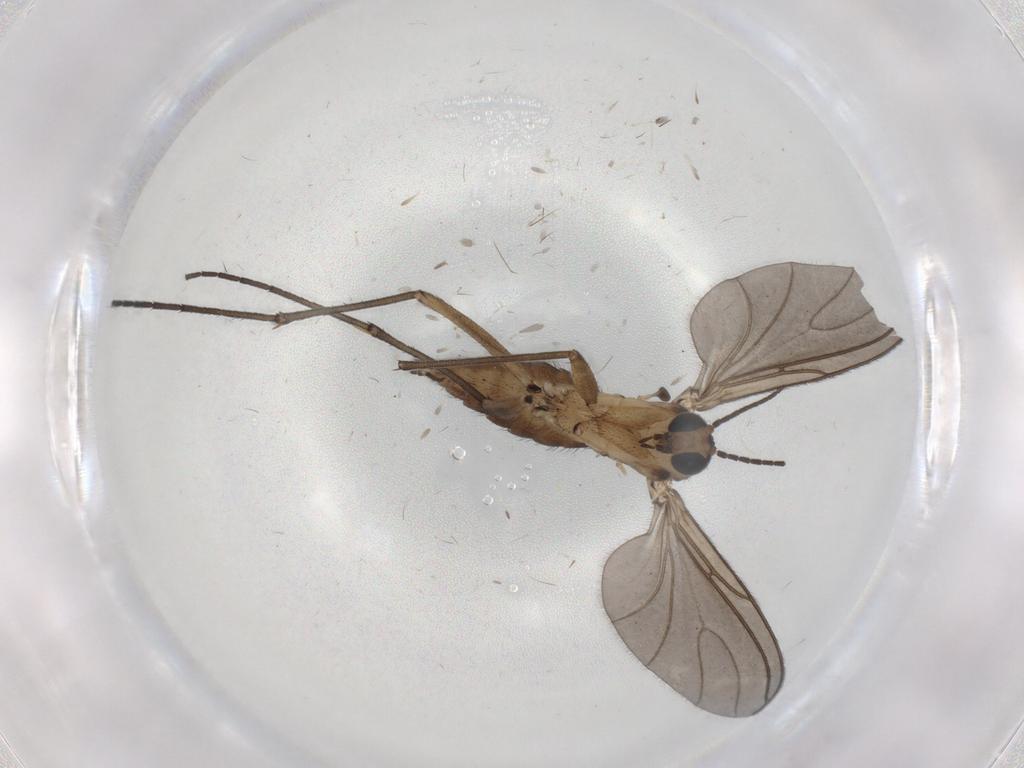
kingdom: Animalia
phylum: Arthropoda
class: Insecta
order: Diptera
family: Sciaridae
